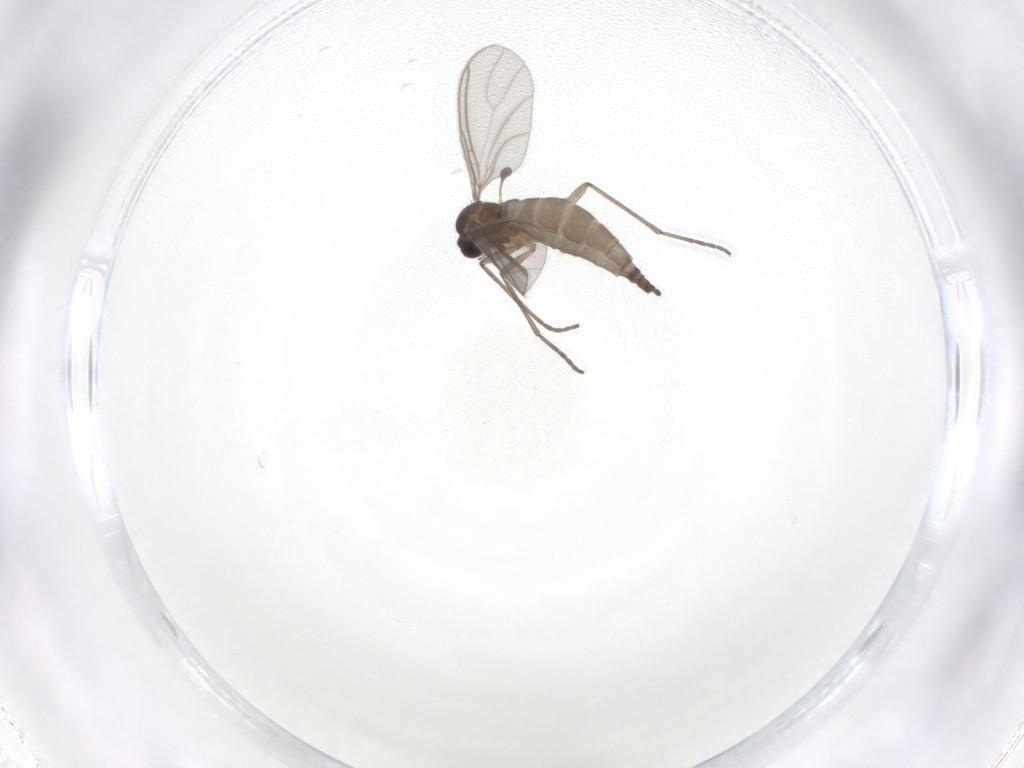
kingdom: Animalia
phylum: Arthropoda
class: Insecta
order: Diptera
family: Sciaridae
